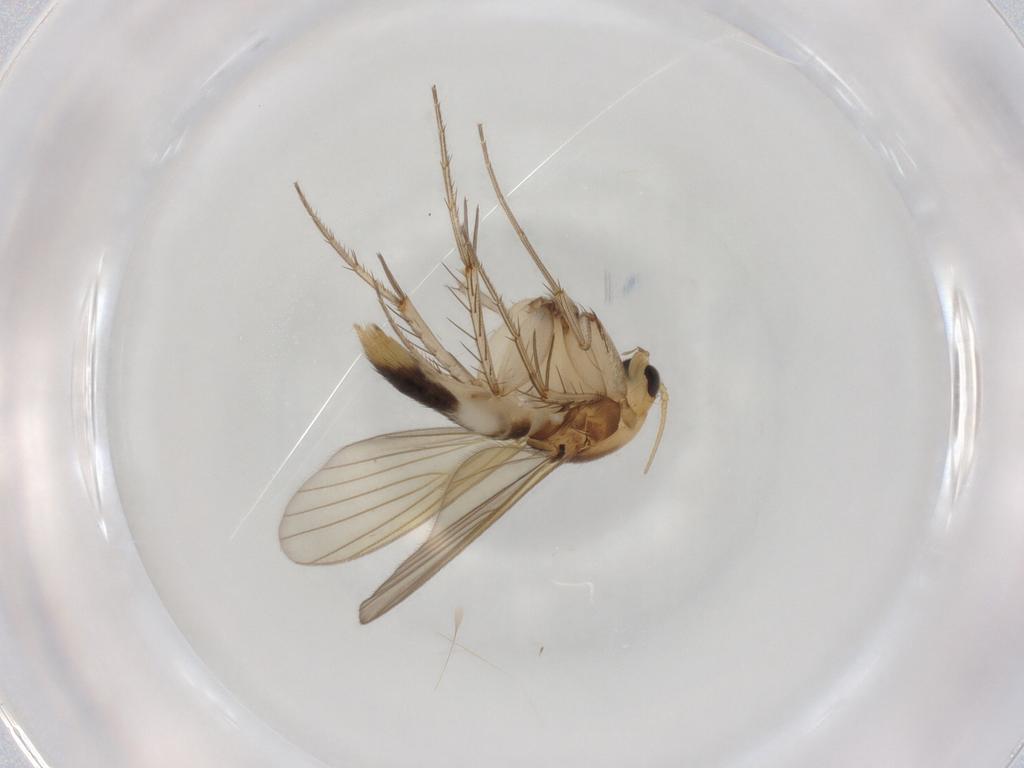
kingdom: Animalia
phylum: Arthropoda
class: Insecta
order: Diptera
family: Mycetophilidae
